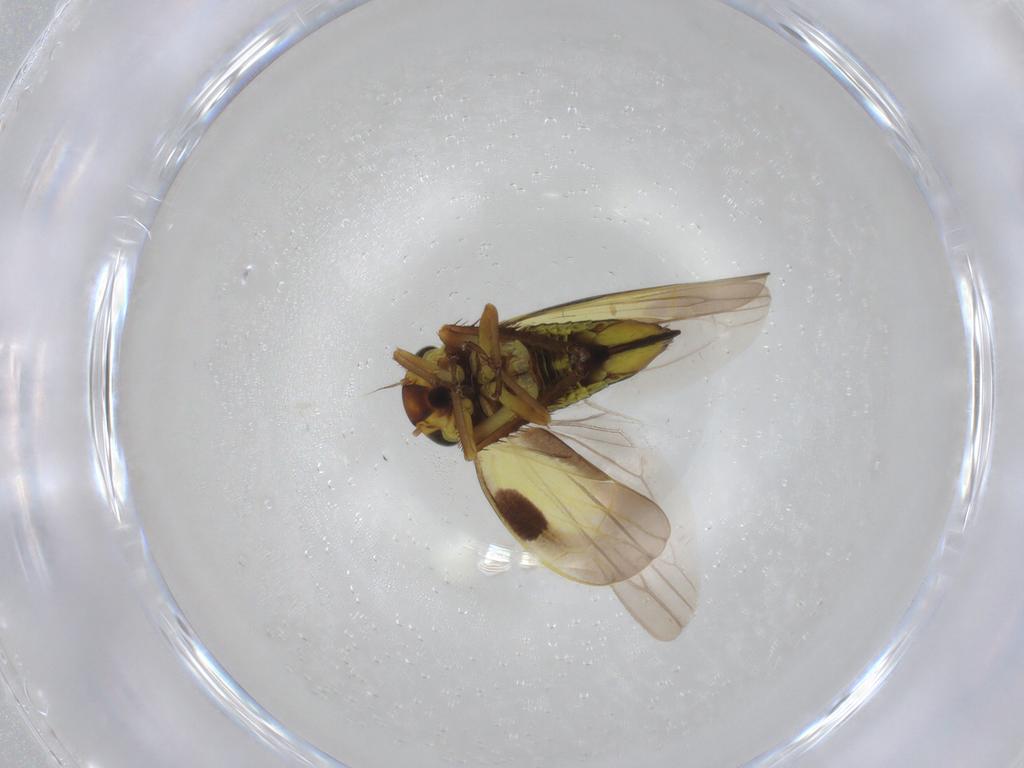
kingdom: Animalia
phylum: Arthropoda
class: Insecta
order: Diptera
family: Cecidomyiidae
